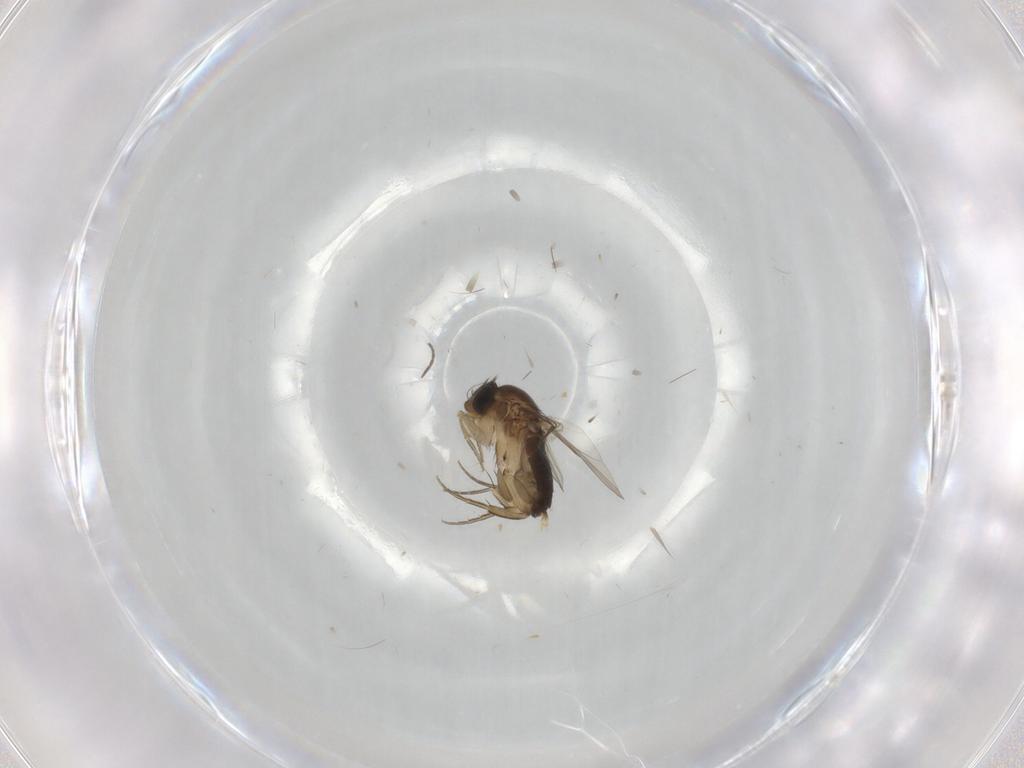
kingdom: Animalia
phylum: Arthropoda
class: Insecta
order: Diptera
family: Phoridae
